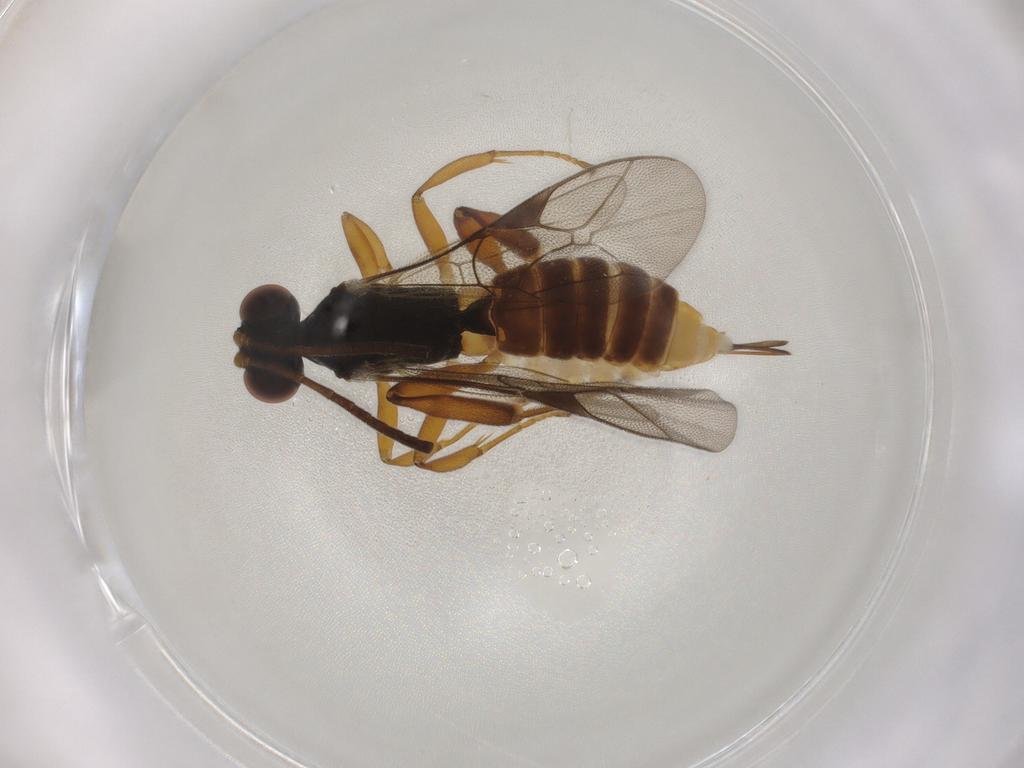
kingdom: Animalia
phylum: Arthropoda
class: Insecta
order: Hymenoptera
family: Ichneumonidae
